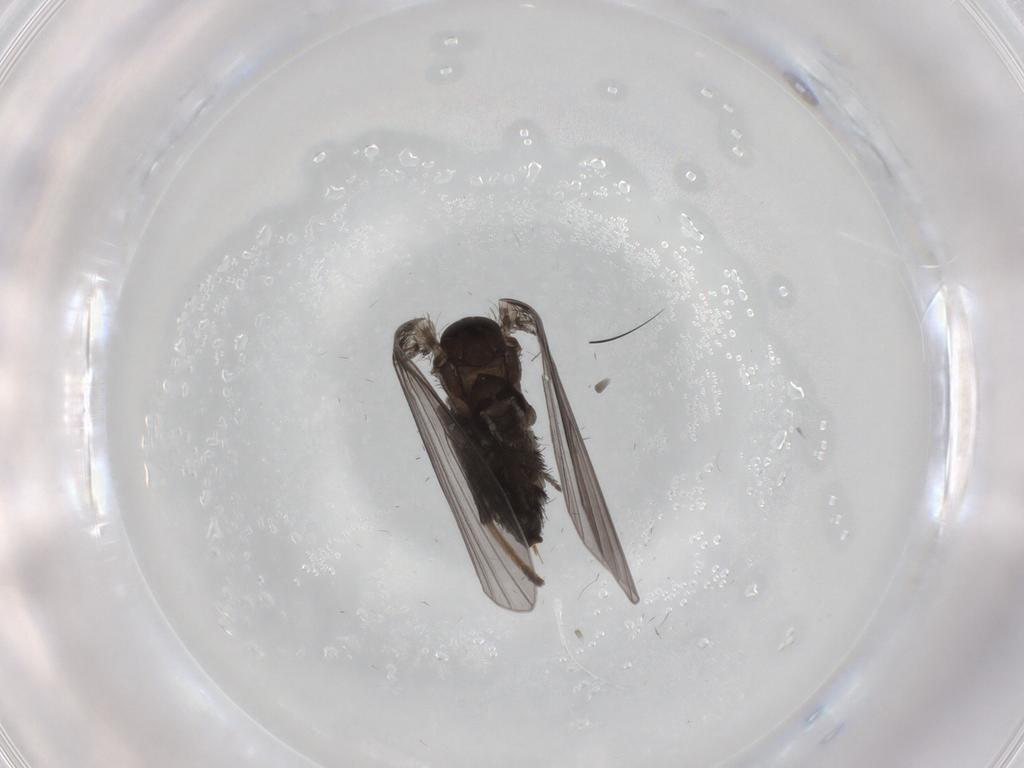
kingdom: Animalia
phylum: Arthropoda
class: Insecta
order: Diptera
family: Psychodidae
